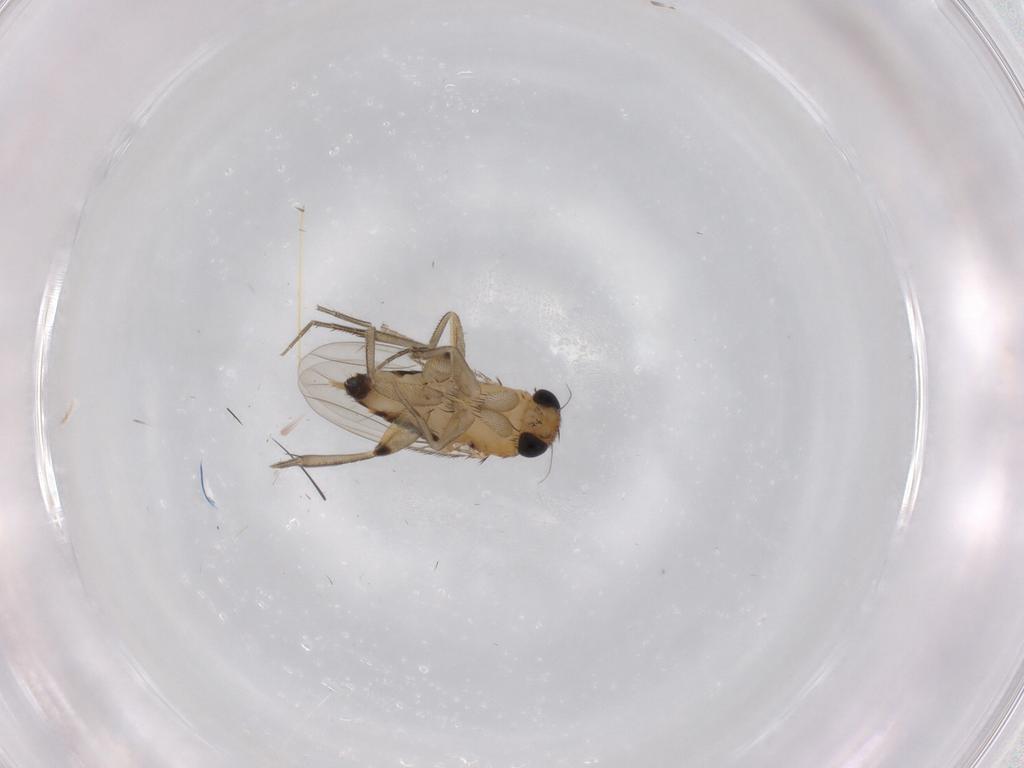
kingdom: Animalia
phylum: Arthropoda
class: Insecta
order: Diptera
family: Phoridae
